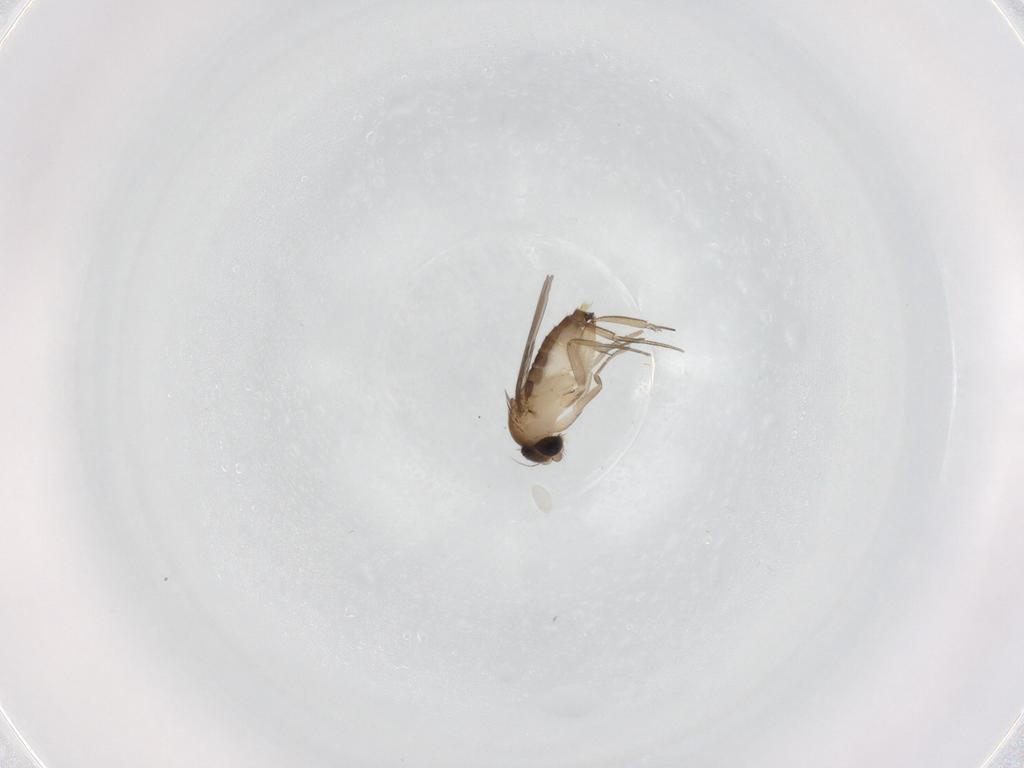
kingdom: Animalia
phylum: Arthropoda
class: Insecta
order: Diptera
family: Phoridae
